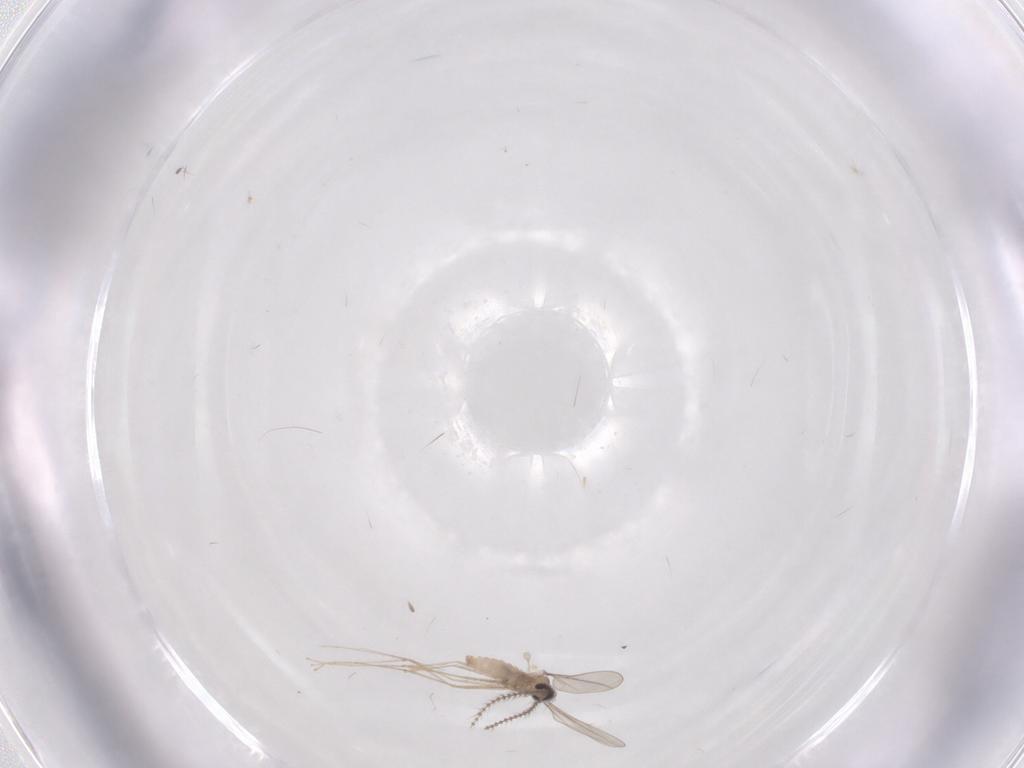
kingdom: Animalia
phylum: Arthropoda
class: Insecta
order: Diptera
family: Cecidomyiidae
